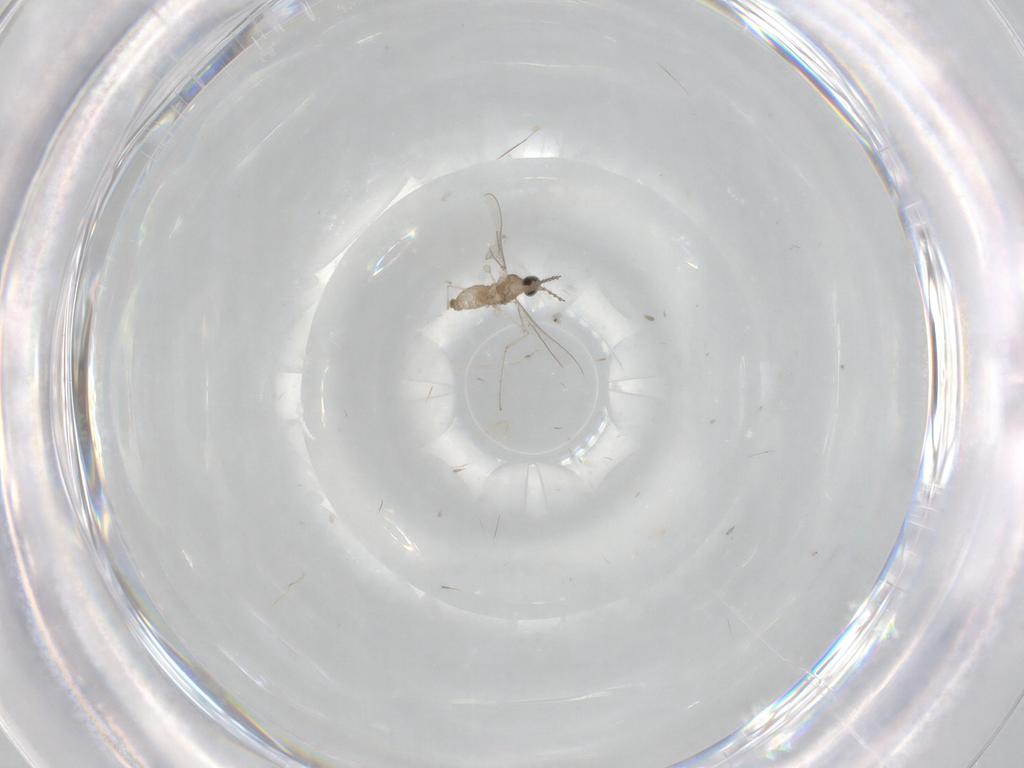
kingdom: Animalia
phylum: Arthropoda
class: Insecta
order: Diptera
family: Cecidomyiidae
